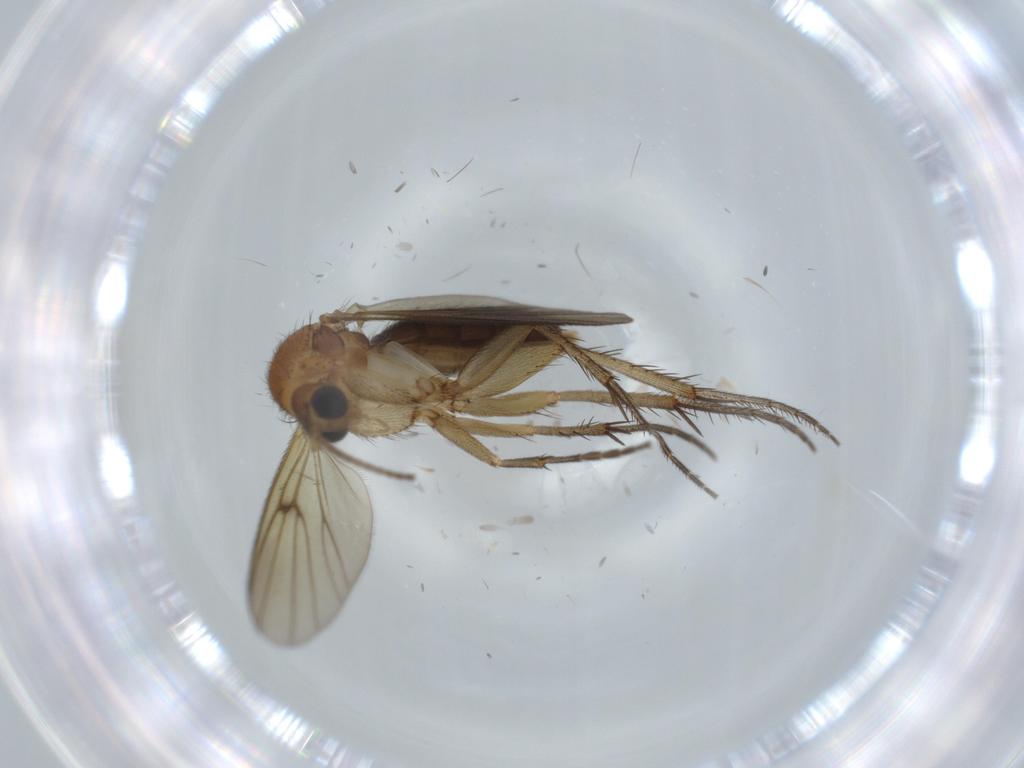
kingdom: Animalia
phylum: Arthropoda
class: Insecta
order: Diptera
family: Mycetophilidae
